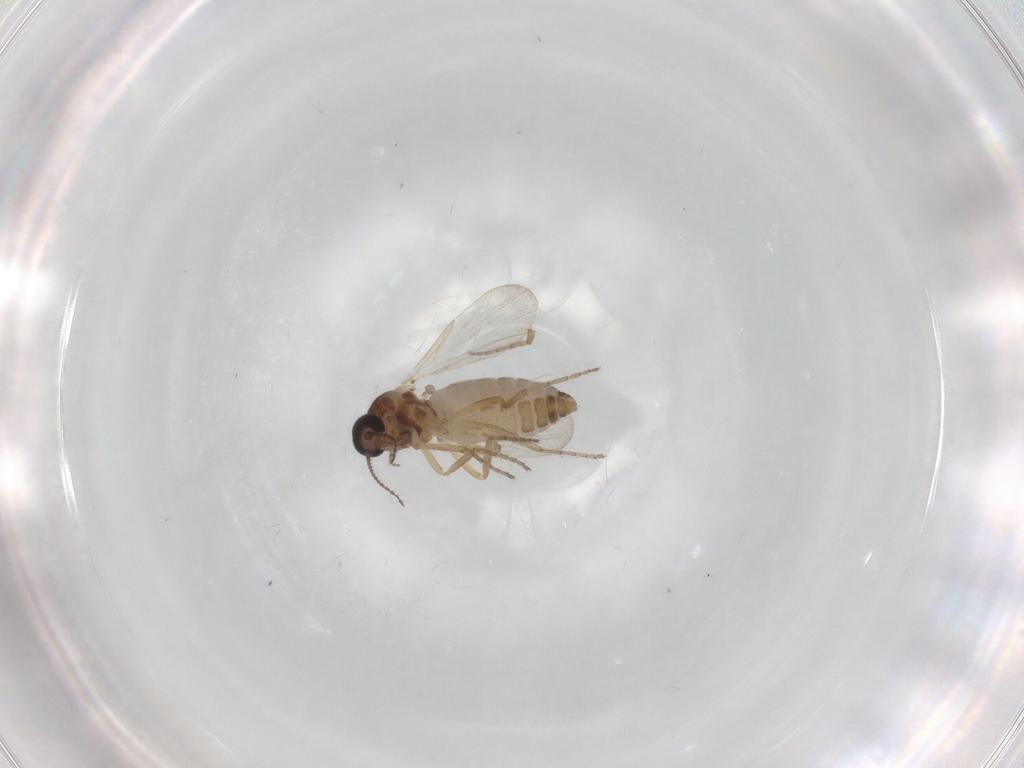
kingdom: Animalia
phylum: Arthropoda
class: Insecta
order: Diptera
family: Ceratopogonidae
